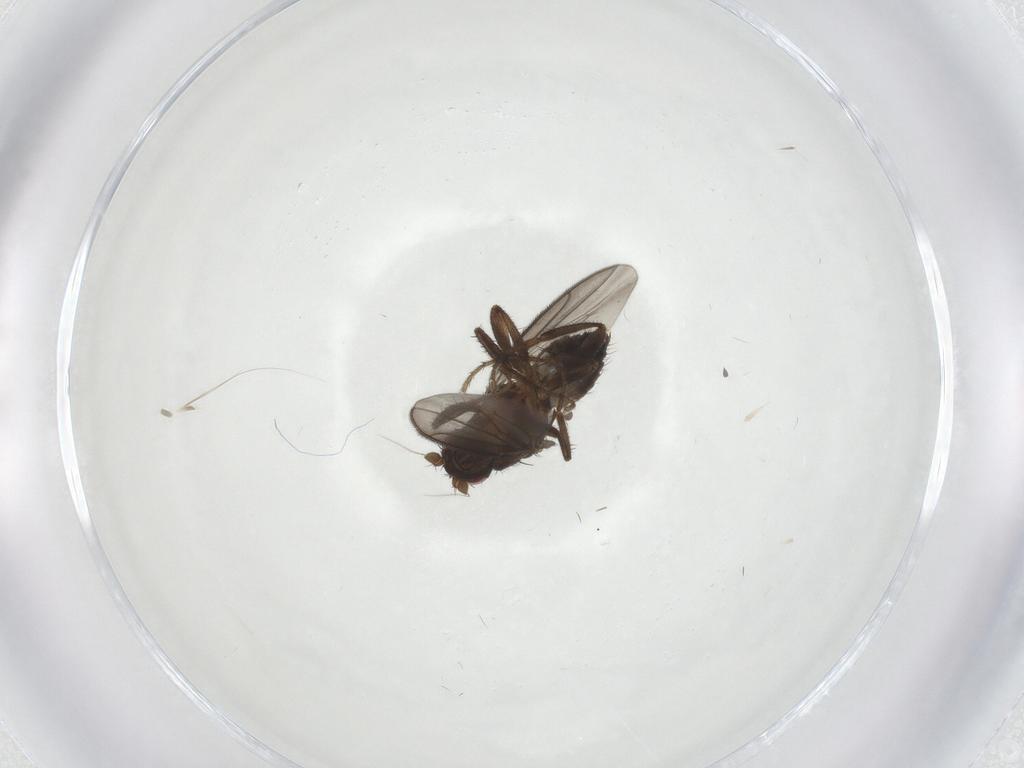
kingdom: Animalia
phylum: Arthropoda
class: Insecta
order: Diptera
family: Sphaeroceridae
